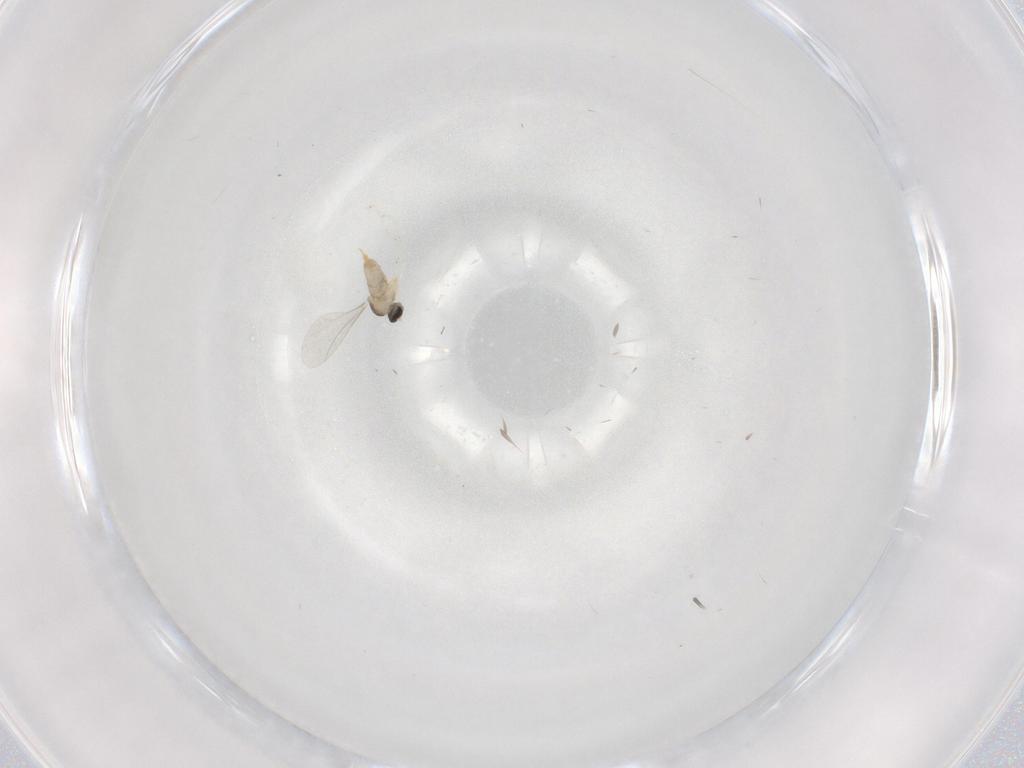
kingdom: Animalia
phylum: Arthropoda
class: Insecta
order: Diptera
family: Cecidomyiidae
